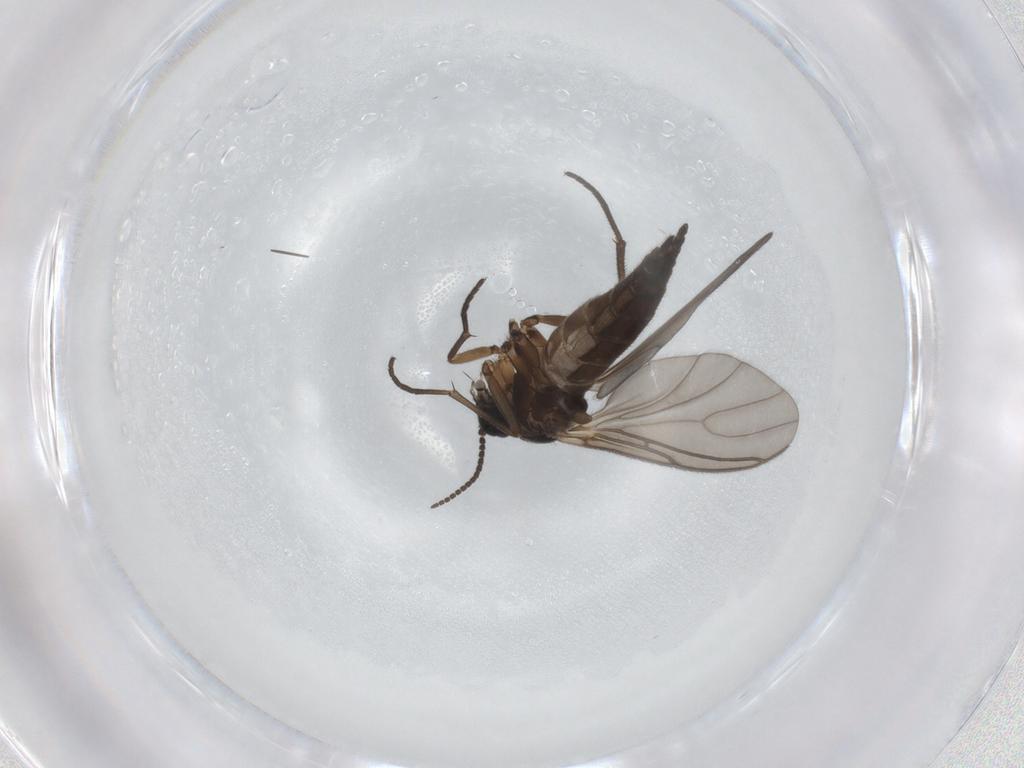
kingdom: Animalia
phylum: Arthropoda
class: Insecta
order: Diptera
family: Sciaridae
